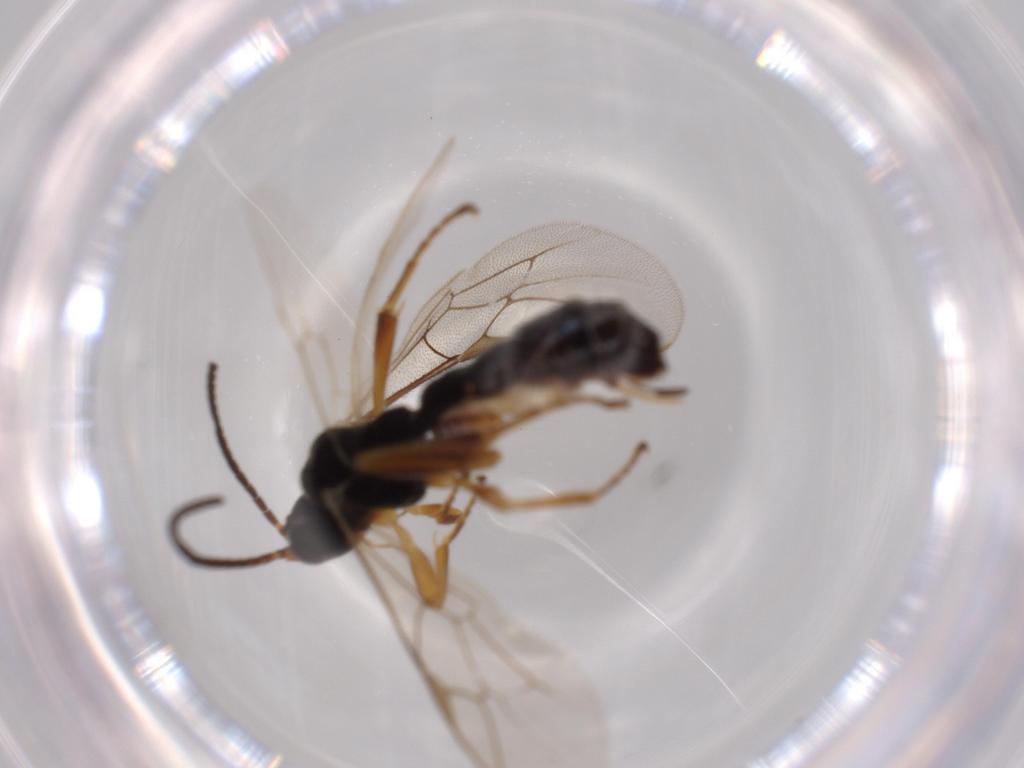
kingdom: Animalia
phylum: Arthropoda
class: Insecta
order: Hymenoptera
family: Ichneumonidae
